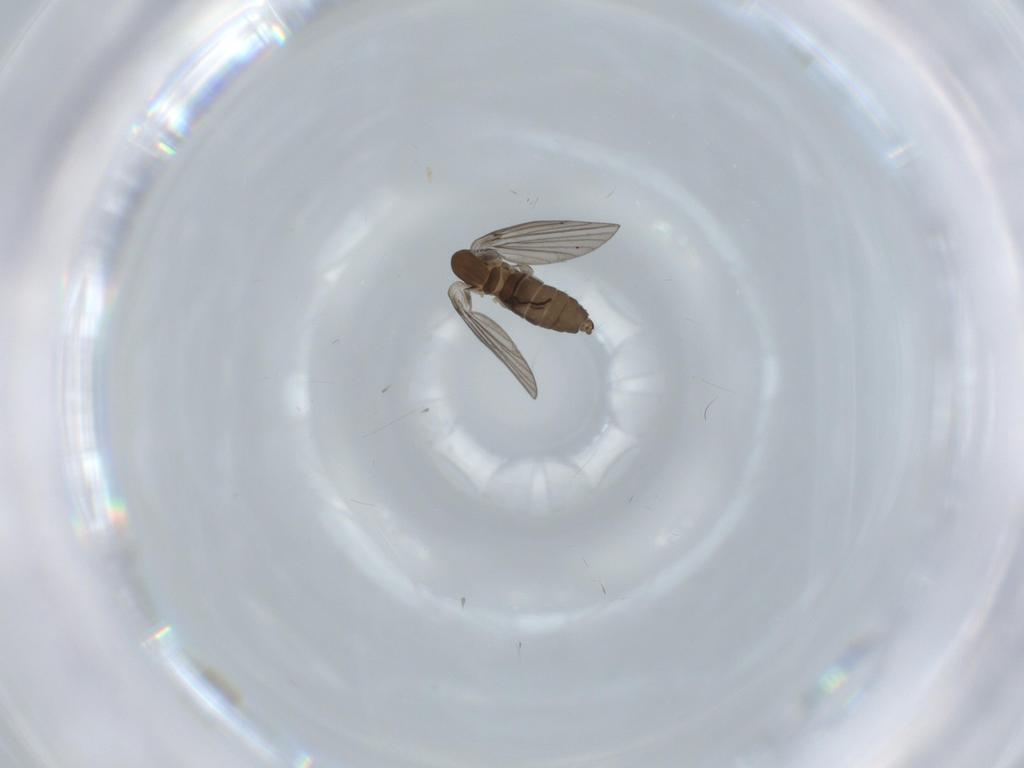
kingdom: Animalia
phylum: Arthropoda
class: Insecta
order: Diptera
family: Psychodidae
